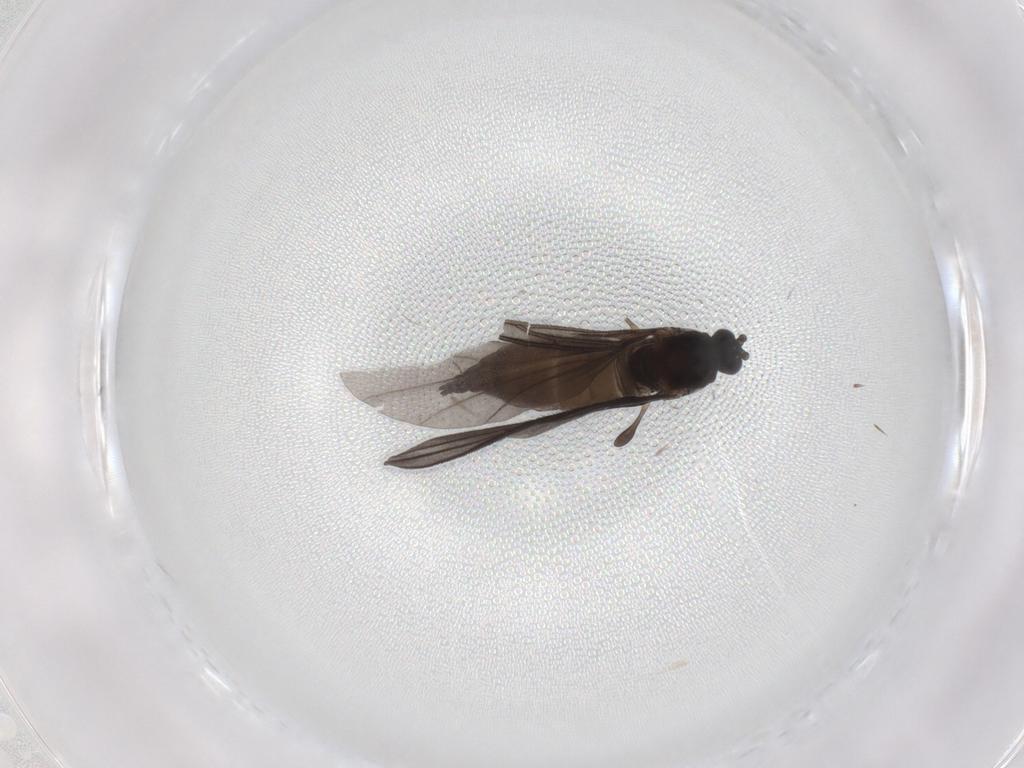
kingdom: Animalia
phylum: Arthropoda
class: Insecta
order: Diptera
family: Sciaridae
